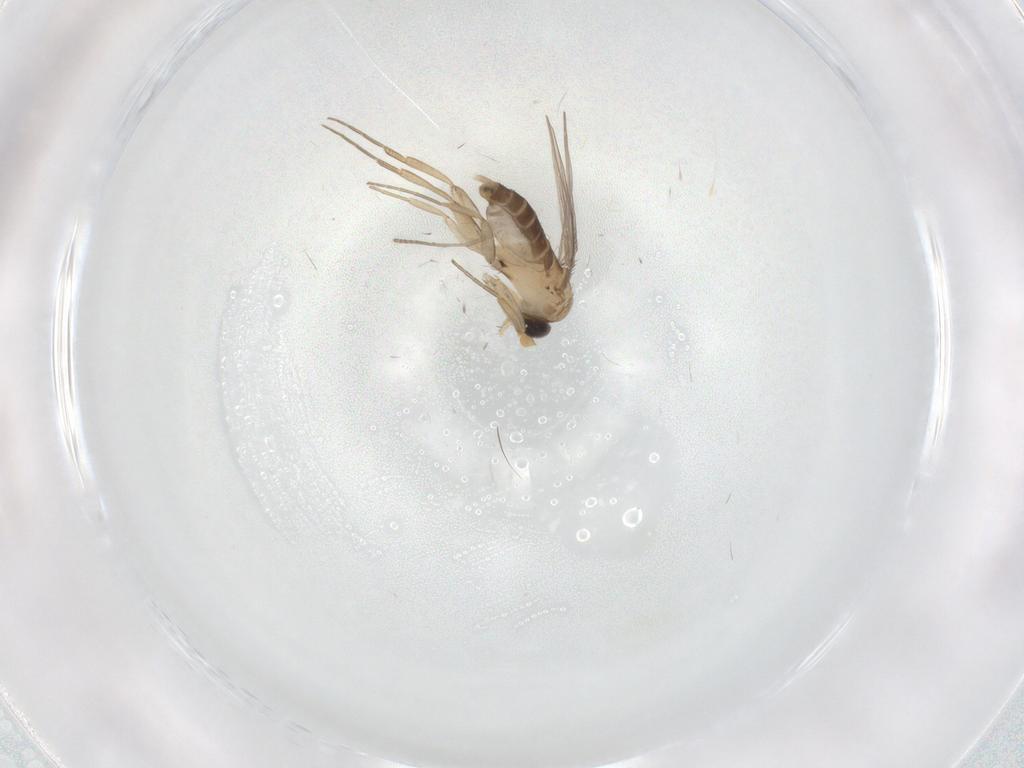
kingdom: Animalia
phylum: Arthropoda
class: Insecta
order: Diptera
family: Phoridae
